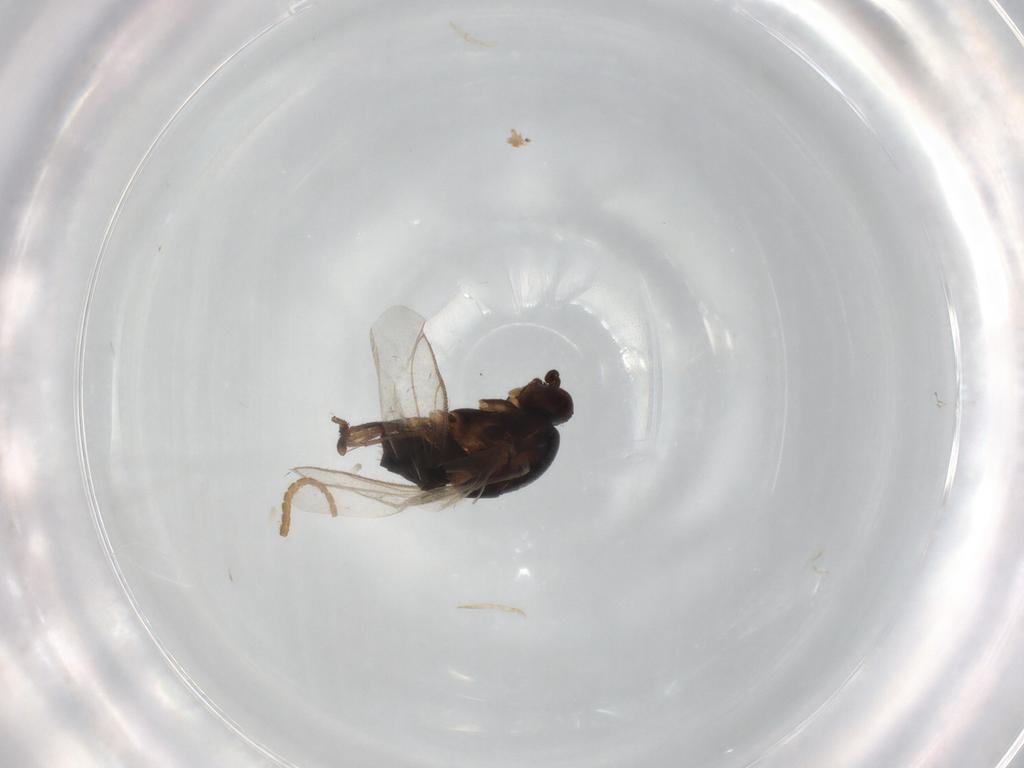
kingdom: Animalia
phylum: Arthropoda
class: Insecta
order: Diptera
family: Sphaeroceridae
